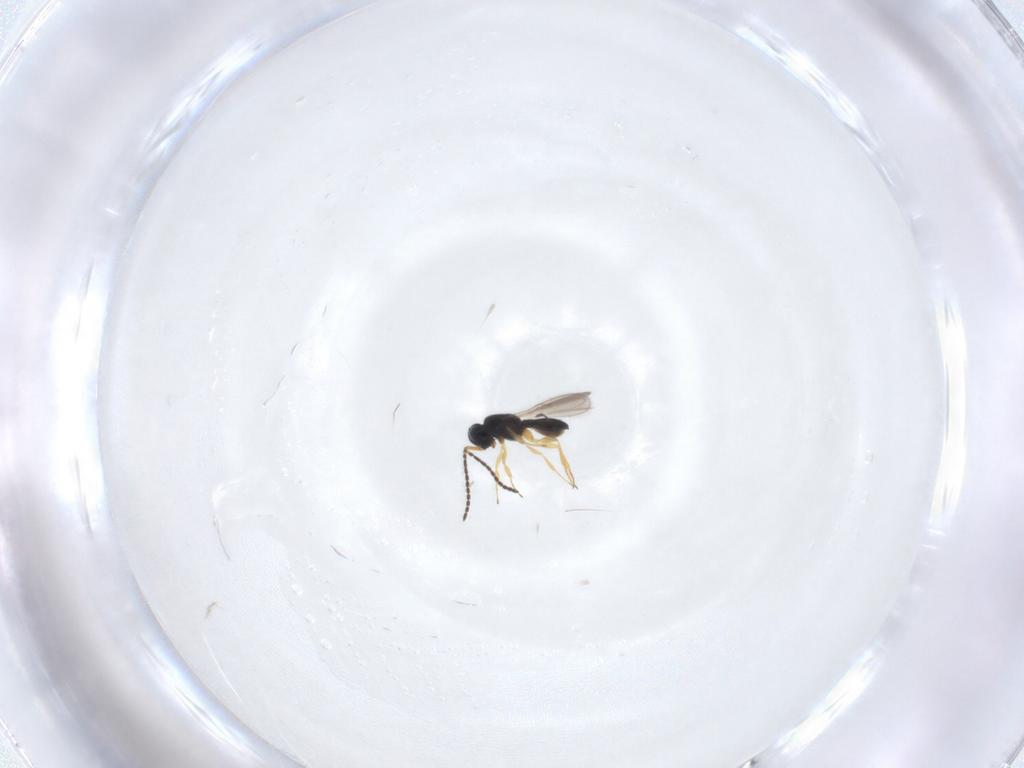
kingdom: Animalia
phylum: Arthropoda
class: Insecta
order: Hymenoptera
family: Scelionidae
